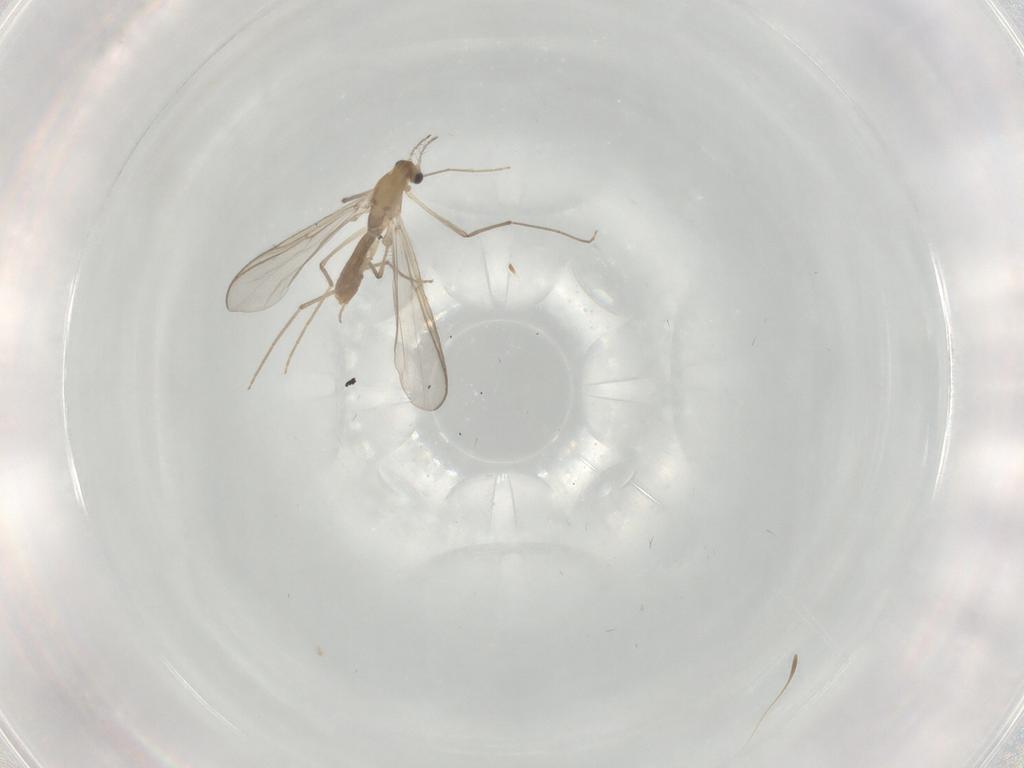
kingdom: Animalia
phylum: Arthropoda
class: Insecta
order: Diptera
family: Chironomidae
